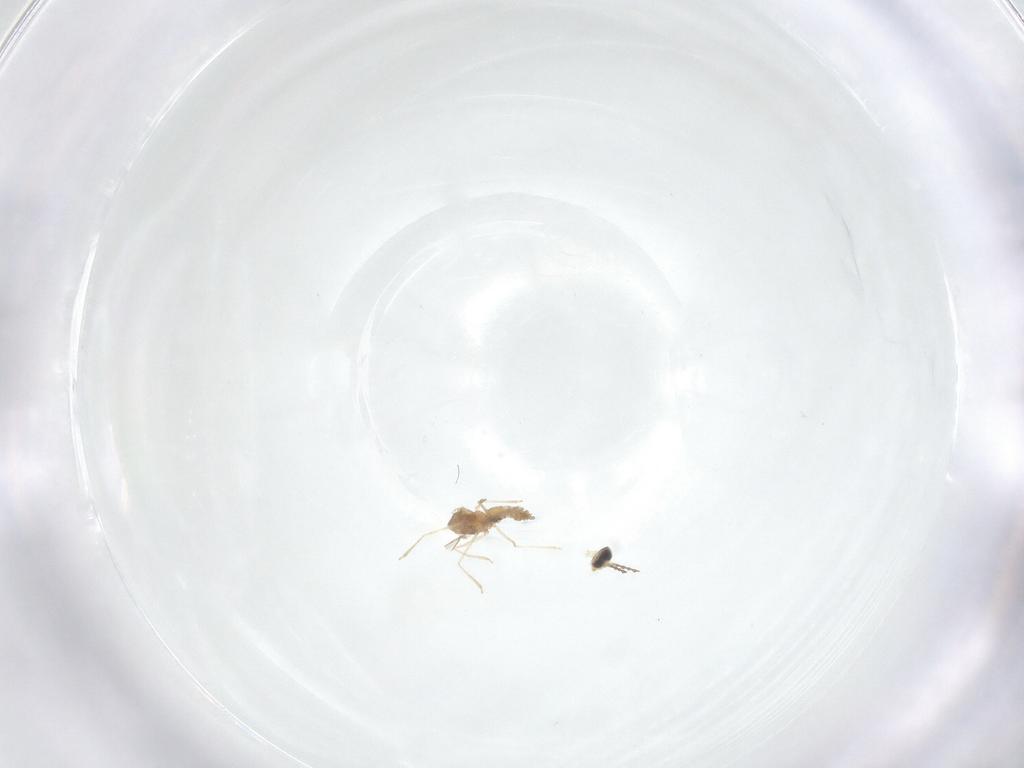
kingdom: Animalia
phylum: Arthropoda
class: Insecta
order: Diptera
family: Cecidomyiidae
